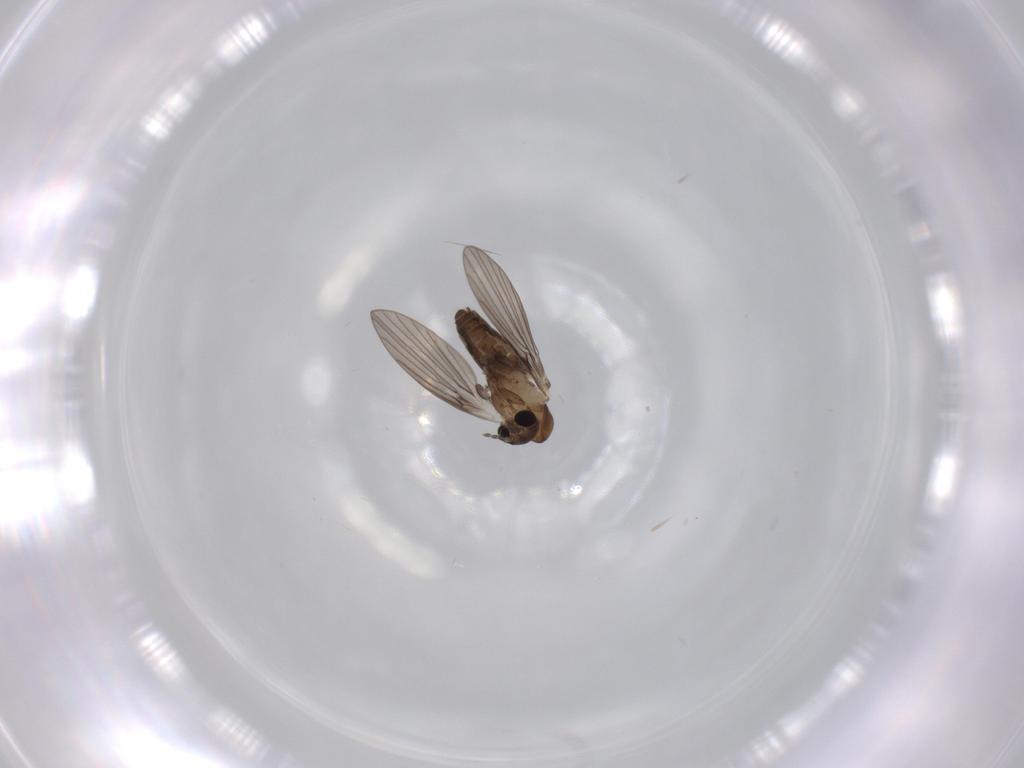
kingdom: Animalia
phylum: Arthropoda
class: Insecta
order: Diptera
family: Psychodidae
